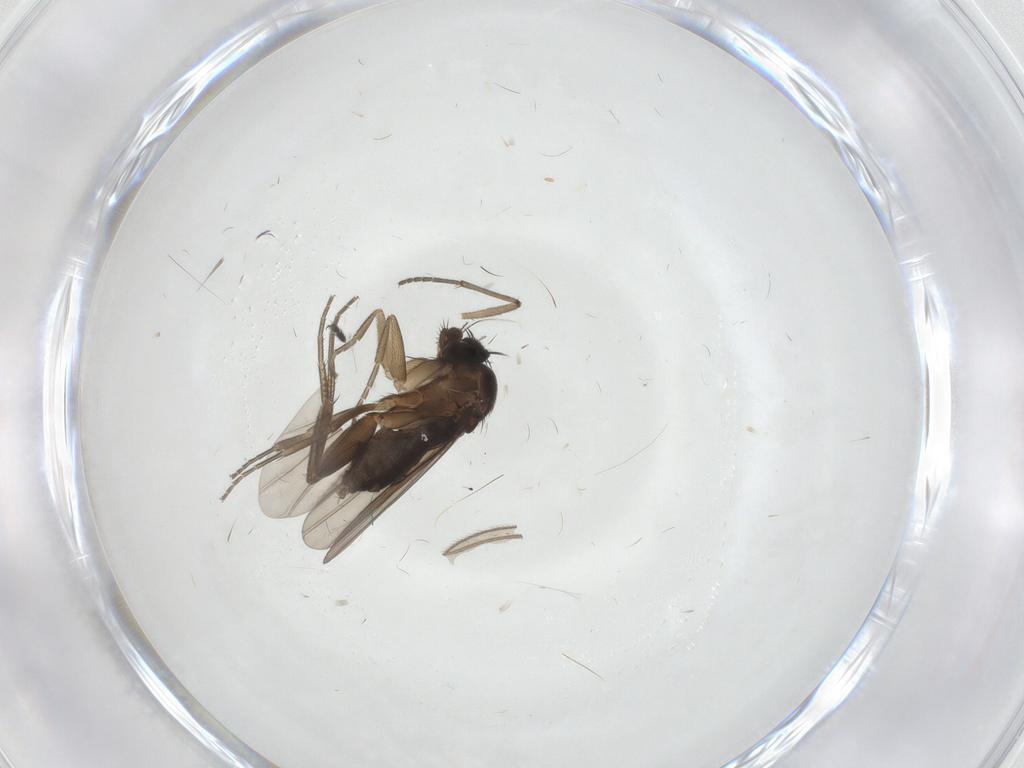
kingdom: Animalia
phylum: Arthropoda
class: Insecta
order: Diptera
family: Phoridae
